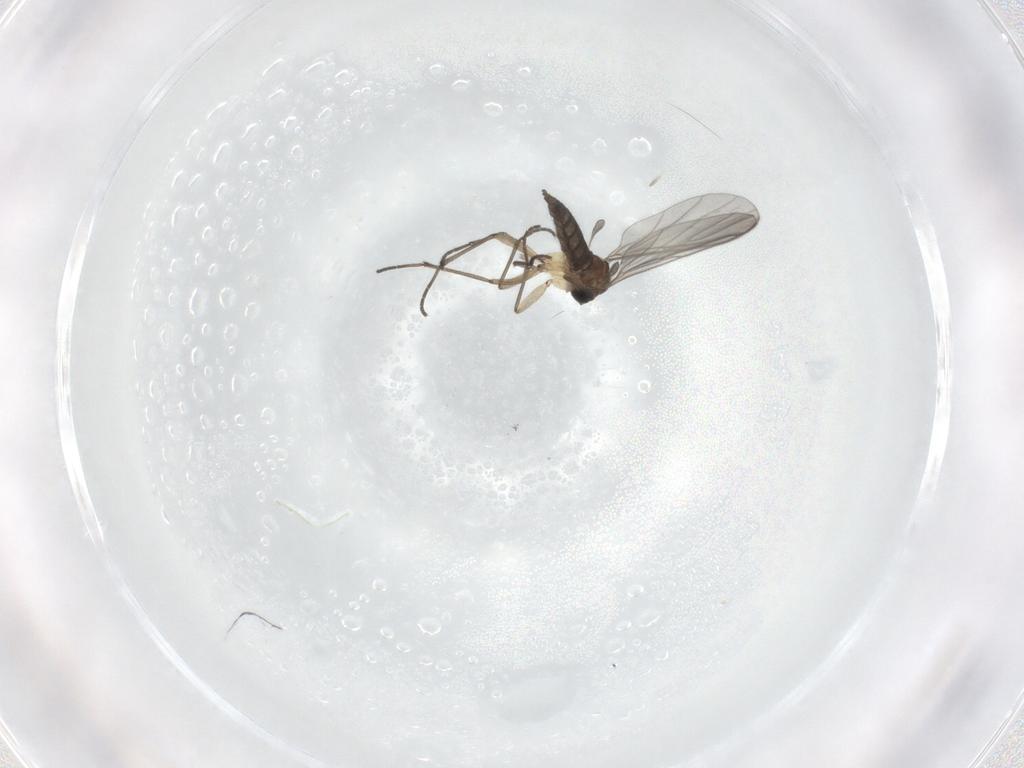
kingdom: Animalia
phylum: Arthropoda
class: Insecta
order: Diptera
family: Sciaridae
